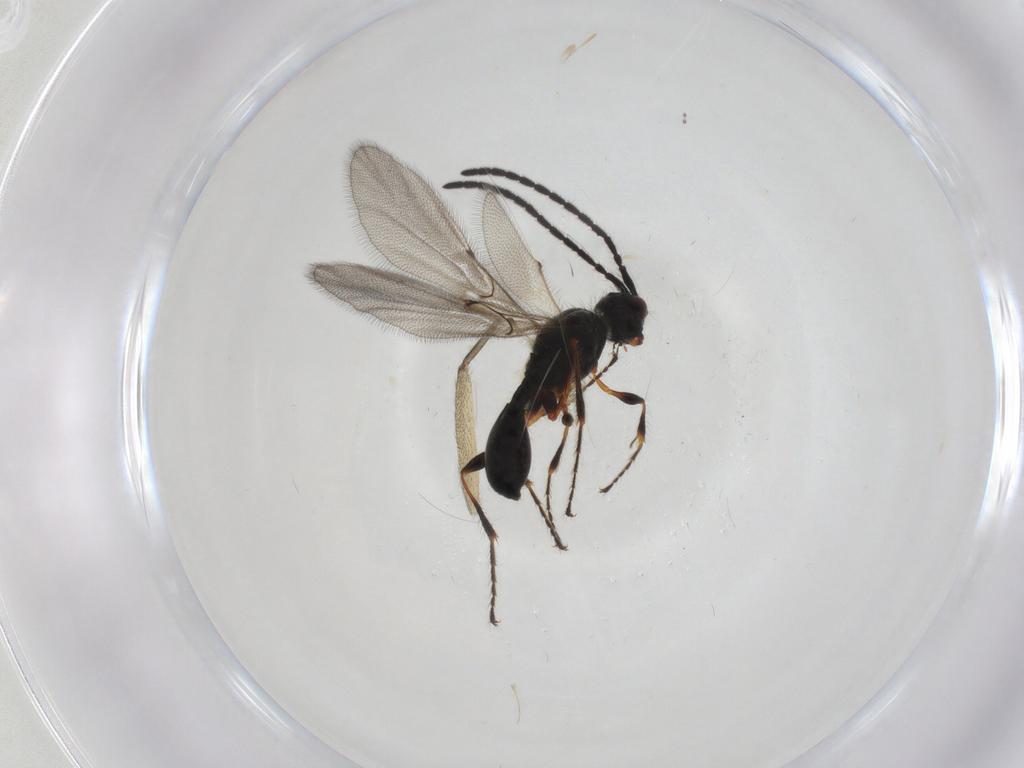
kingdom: Animalia
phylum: Arthropoda
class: Insecta
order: Hymenoptera
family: Diapriidae
